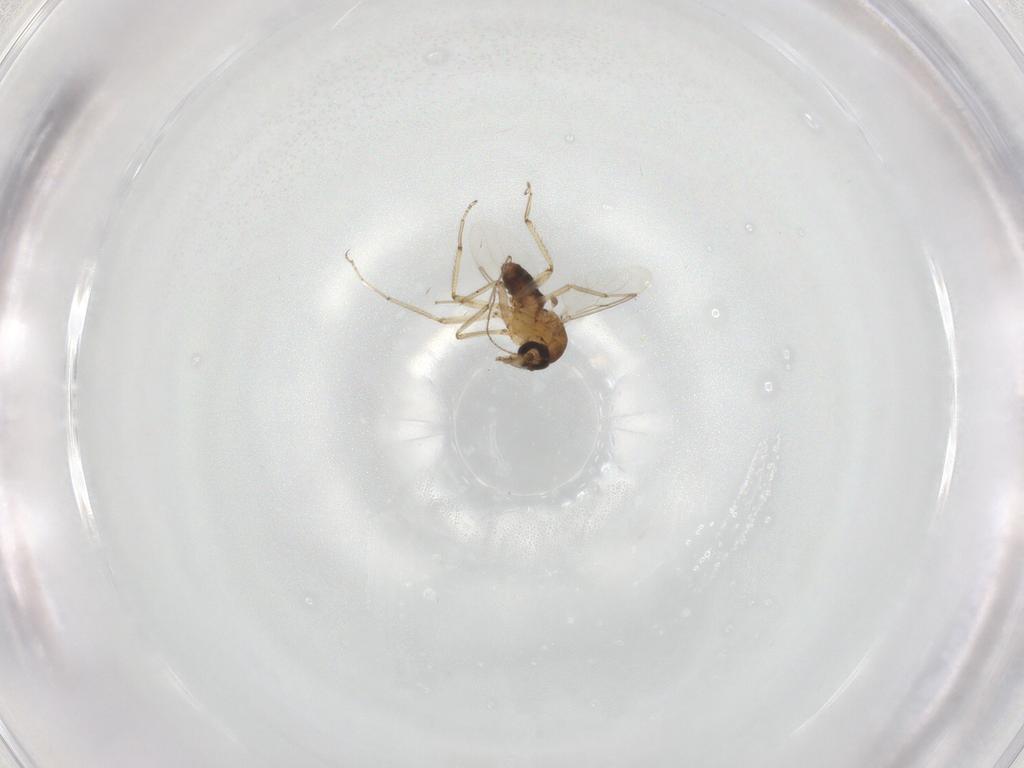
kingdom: Animalia
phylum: Arthropoda
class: Insecta
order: Diptera
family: Ceratopogonidae
